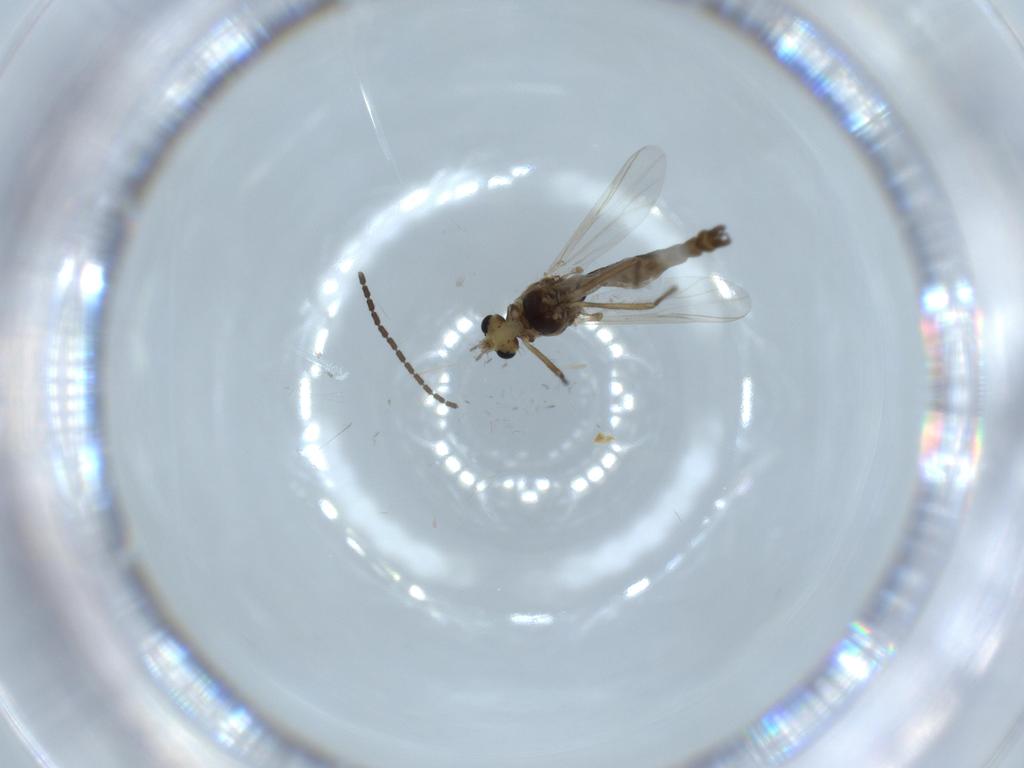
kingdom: Animalia
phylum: Arthropoda
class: Insecta
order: Diptera
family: Chironomidae
